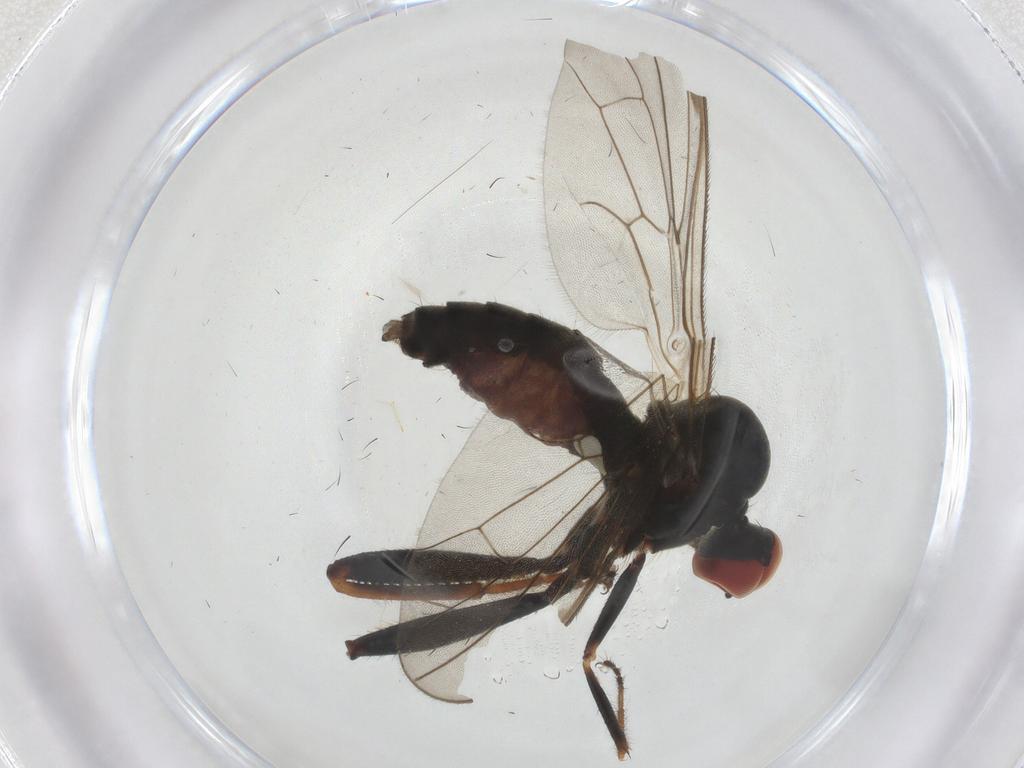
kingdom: Animalia
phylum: Arthropoda
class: Insecta
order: Diptera
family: Hybotidae
